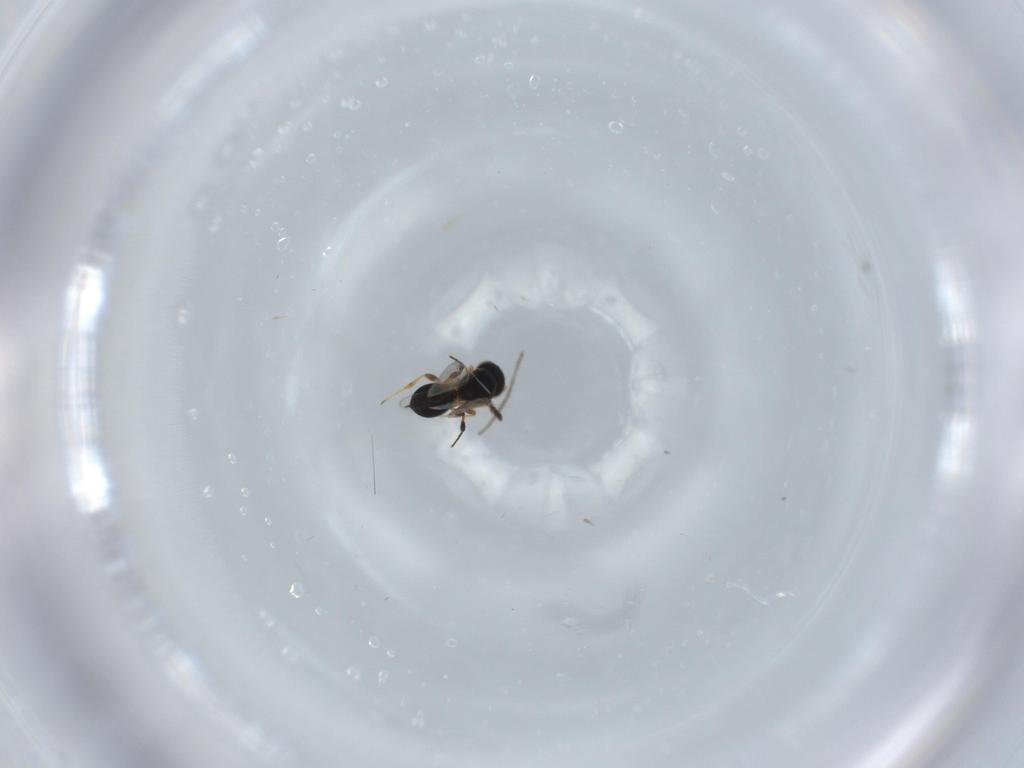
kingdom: Animalia
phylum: Arthropoda
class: Insecta
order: Hymenoptera
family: Platygastridae
